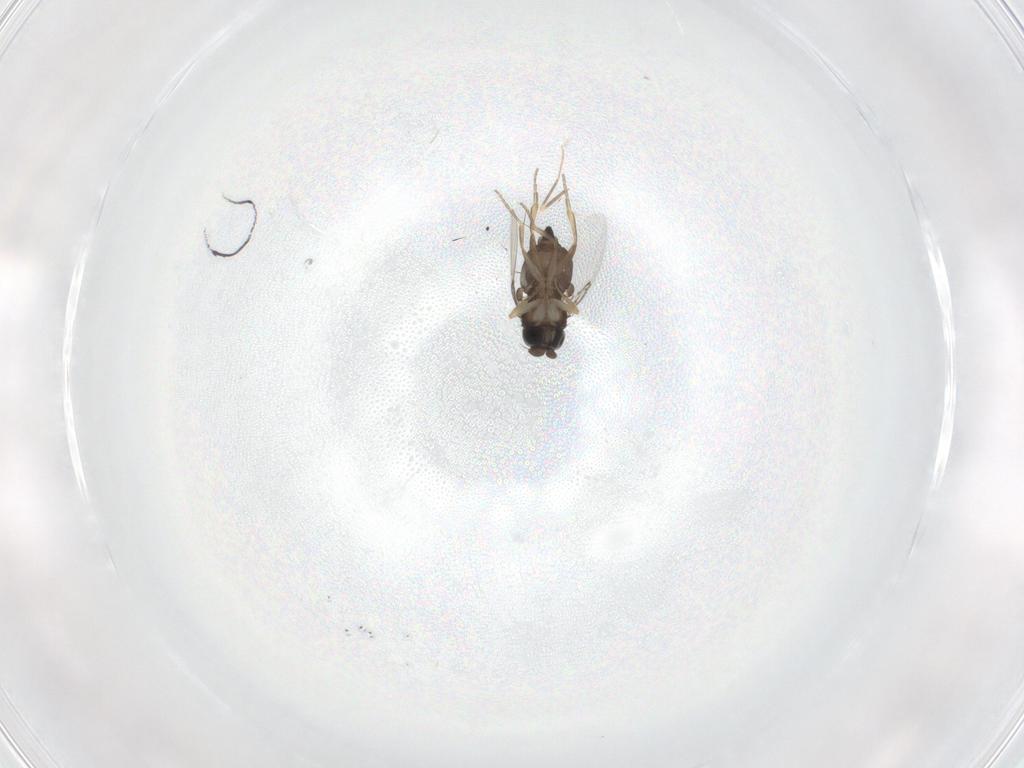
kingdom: Animalia
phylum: Arthropoda
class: Insecta
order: Diptera
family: Phoridae
